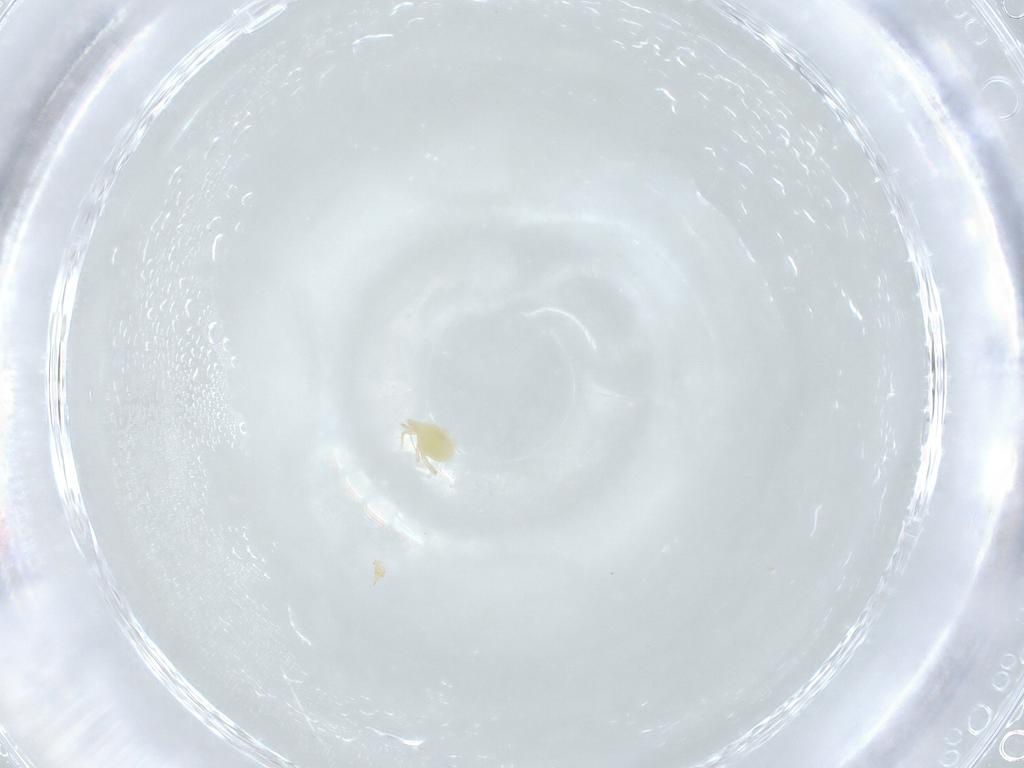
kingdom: Animalia
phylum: Arthropoda
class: Arachnida
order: Sarcoptiformes
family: Scheloribatidae
